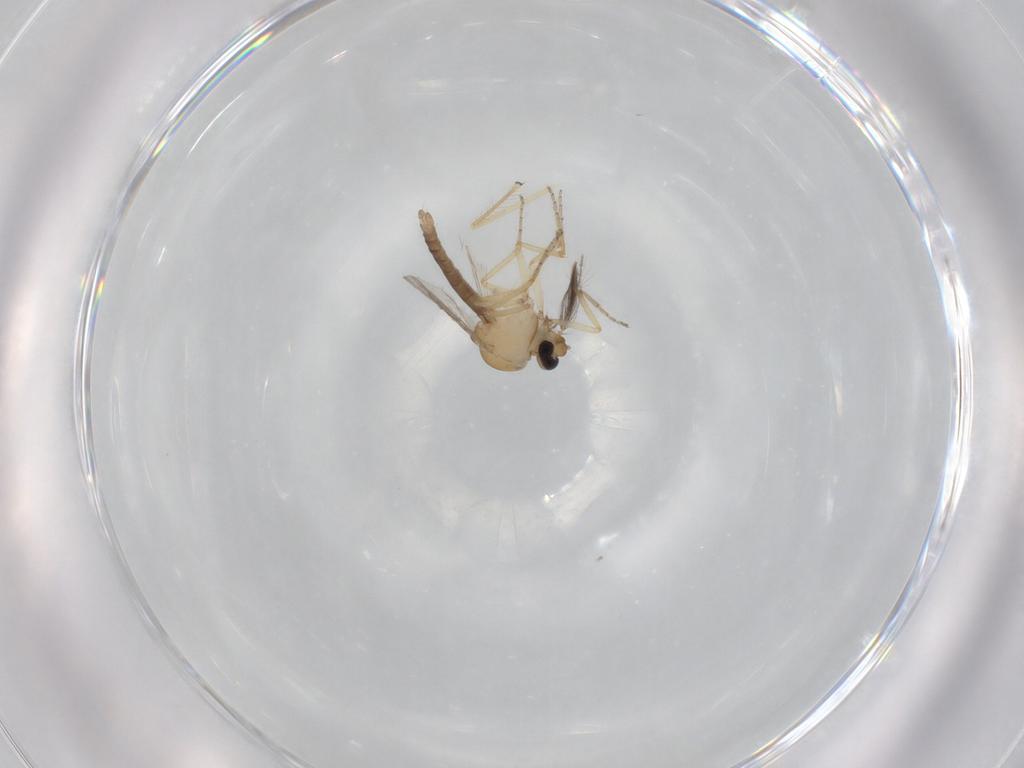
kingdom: Animalia
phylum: Arthropoda
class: Insecta
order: Diptera
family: Ceratopogonidae
